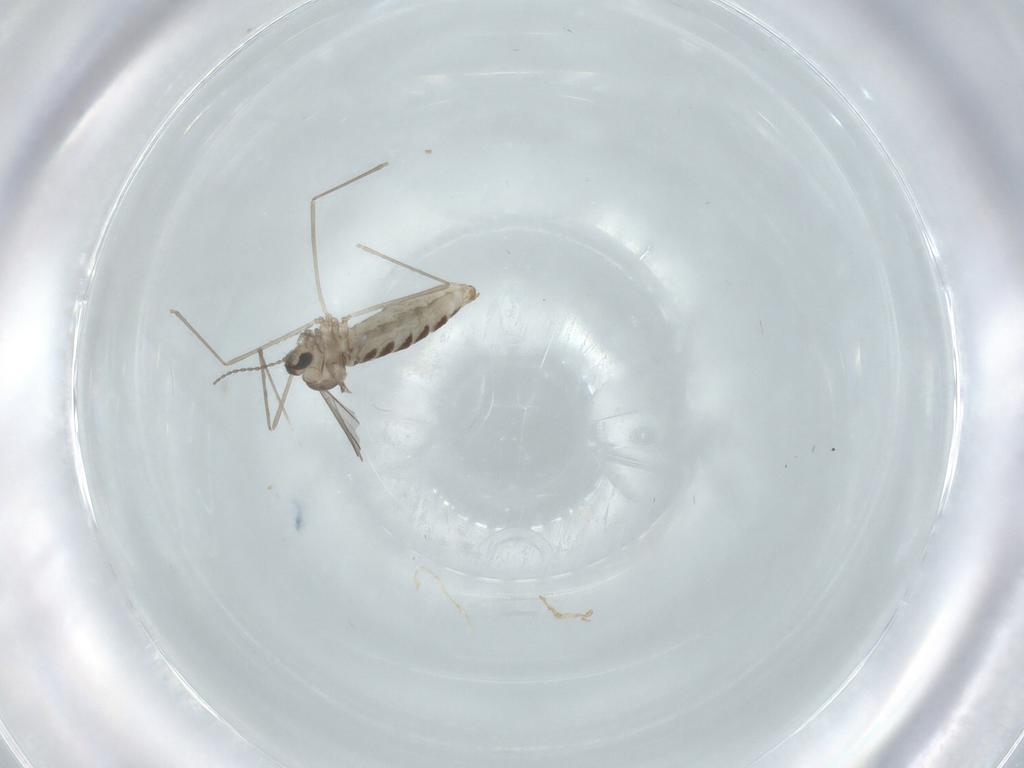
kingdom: Animalia
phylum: Arthropoda
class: Insecta
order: Diptera
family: Cecidomyiidae
